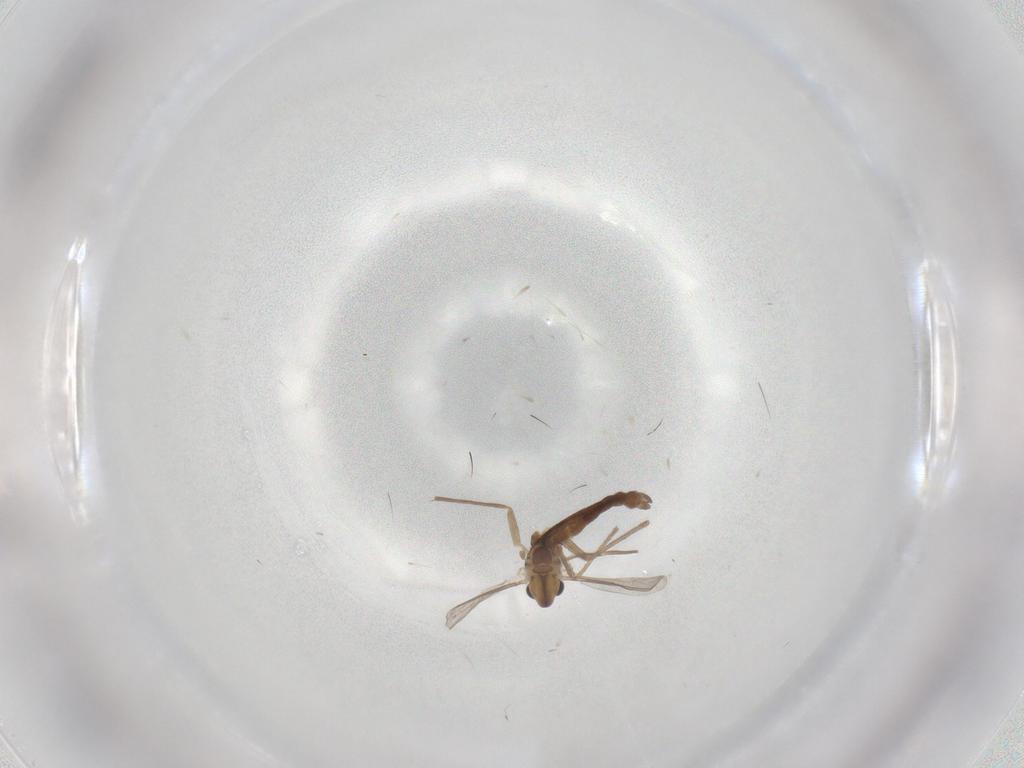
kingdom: Animalia
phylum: Arthropoda
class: Insecta
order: Diptera
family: Chironomidae
